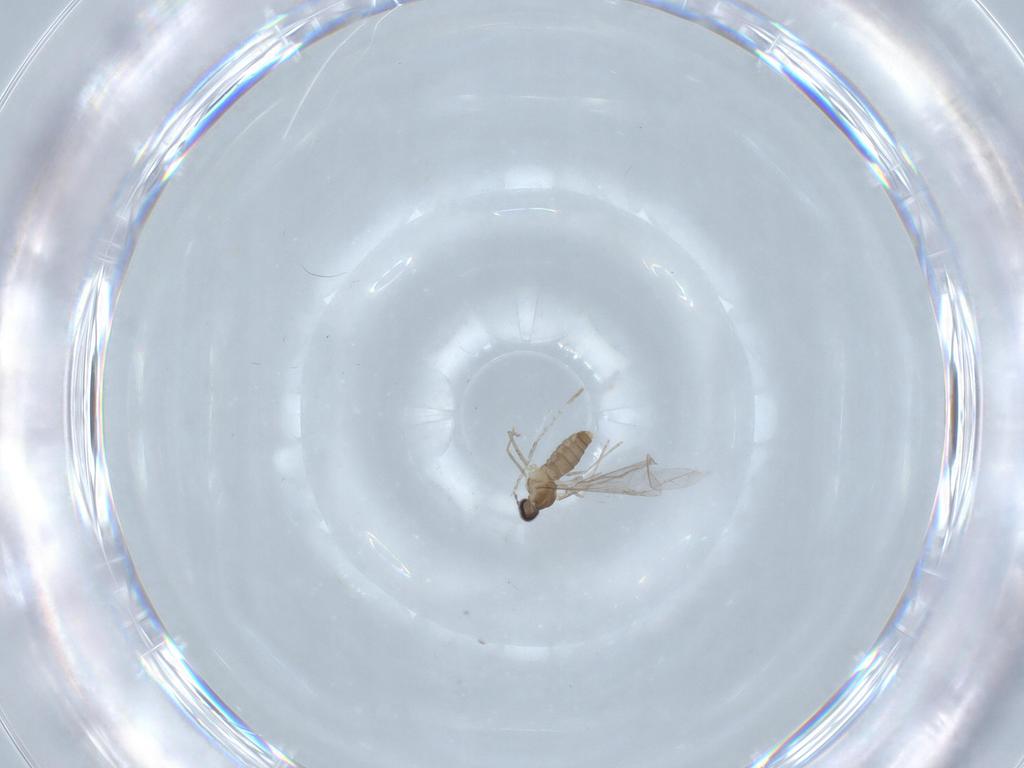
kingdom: Animalia
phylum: Arthropoda
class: Insecta
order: Diptera
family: Cecidomyiidae
